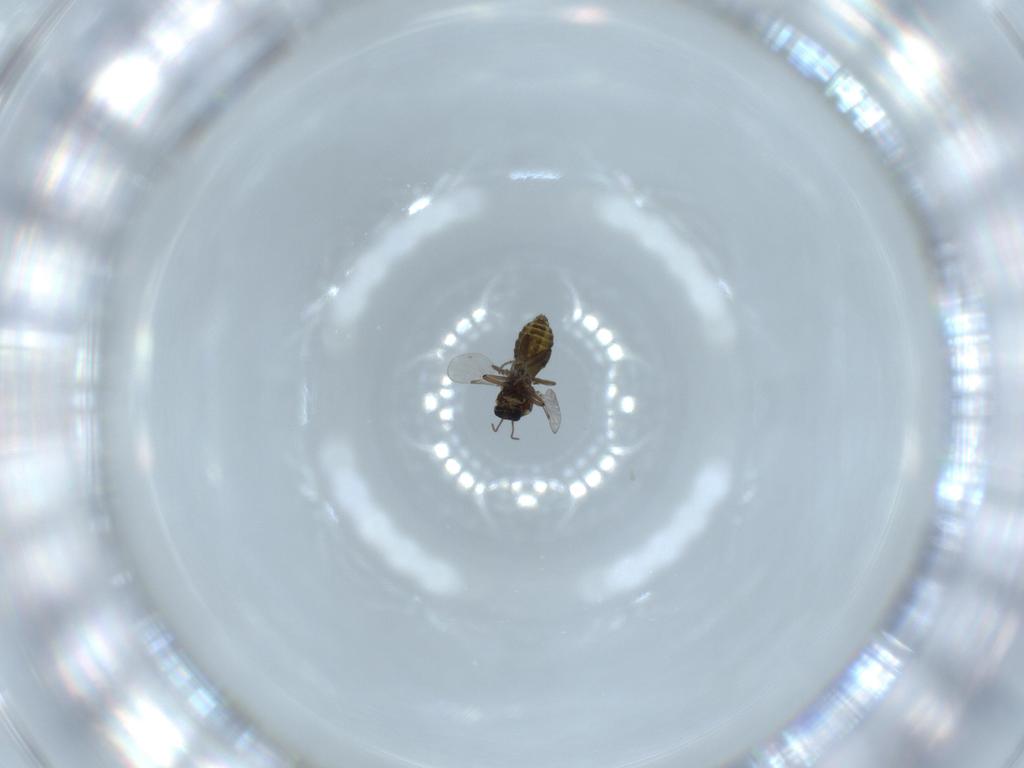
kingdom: Animalia
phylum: Arthropoda
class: Insecta
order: Diptera
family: Ceratopogonidae
